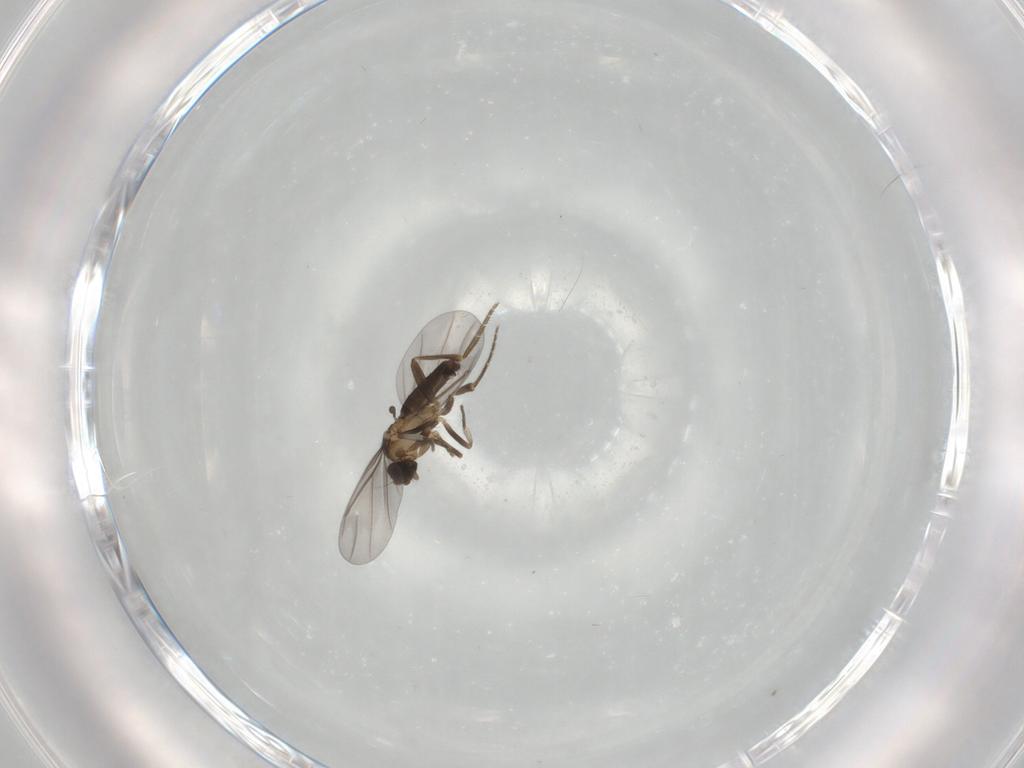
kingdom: Animalia
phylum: Arthropoda
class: Insecta
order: Diptera
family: Phoridae
